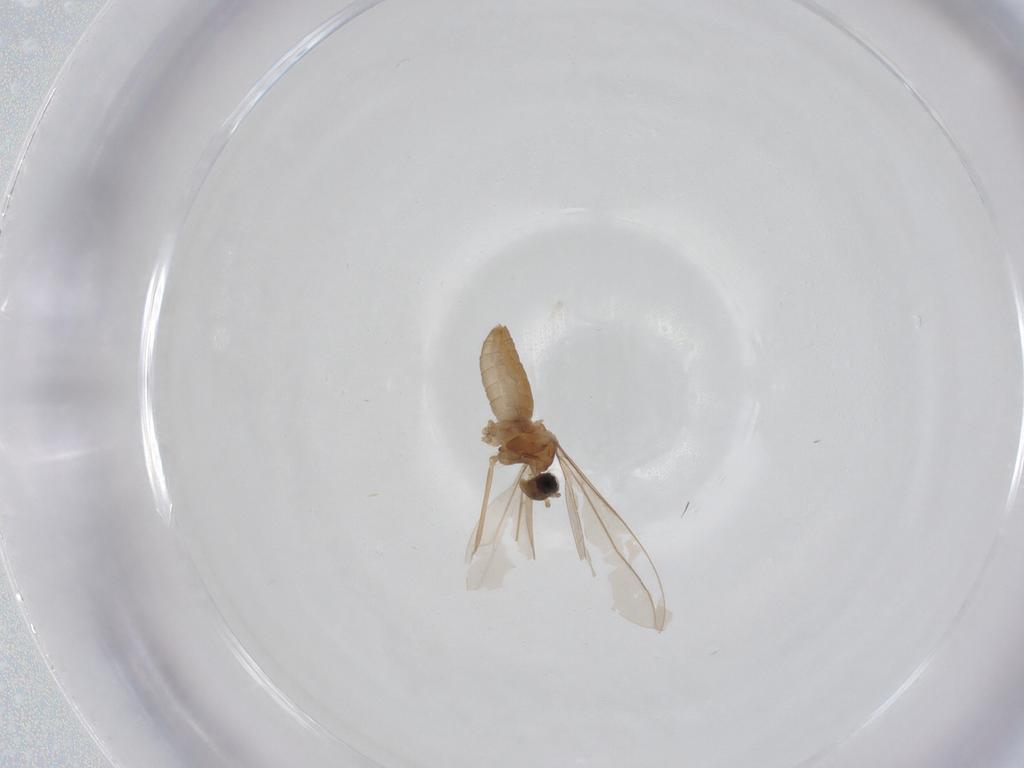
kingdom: Animalia
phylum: Arthropoda
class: Insecta
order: Diptera
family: Cecidomyiidae
